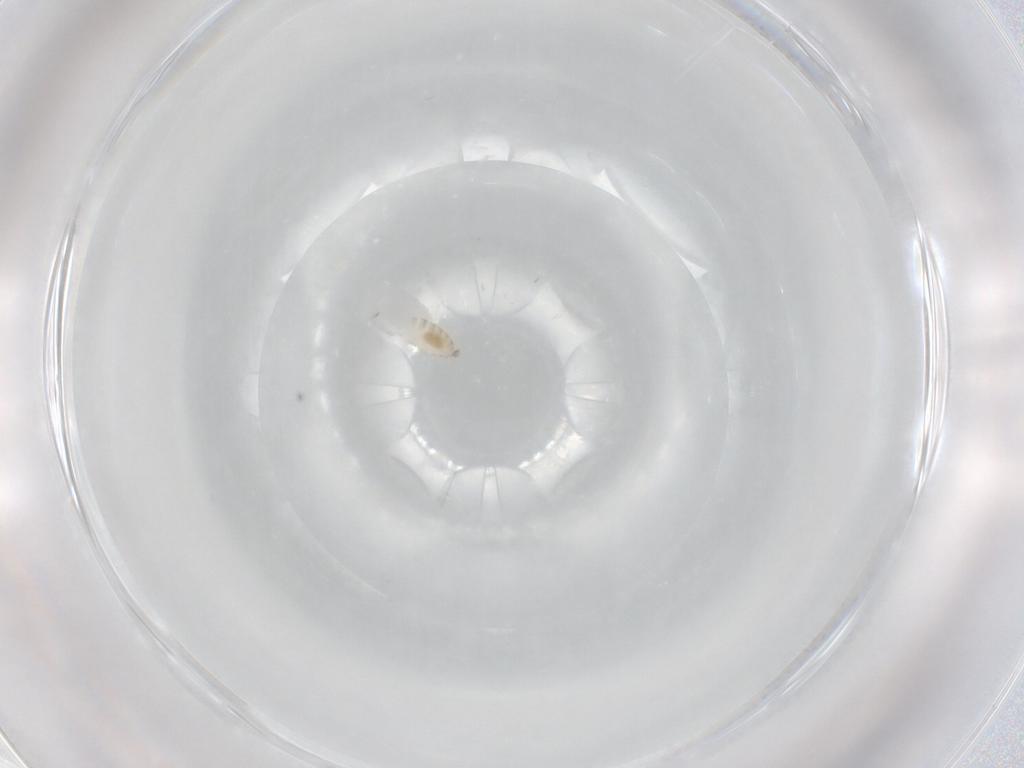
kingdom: Animalia
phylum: Arthropoda
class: Insecta
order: Diptera
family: Cecidomyiidae
